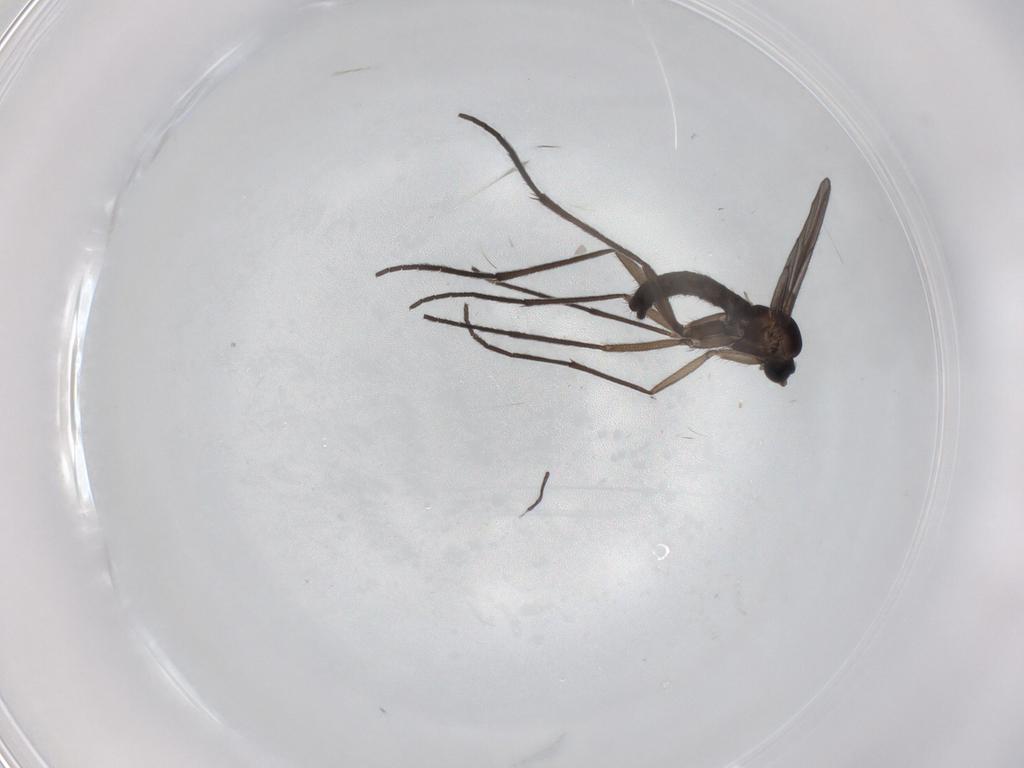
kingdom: Animalia
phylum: Arthropoda
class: Insecta
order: Diptera
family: Sciaridae
